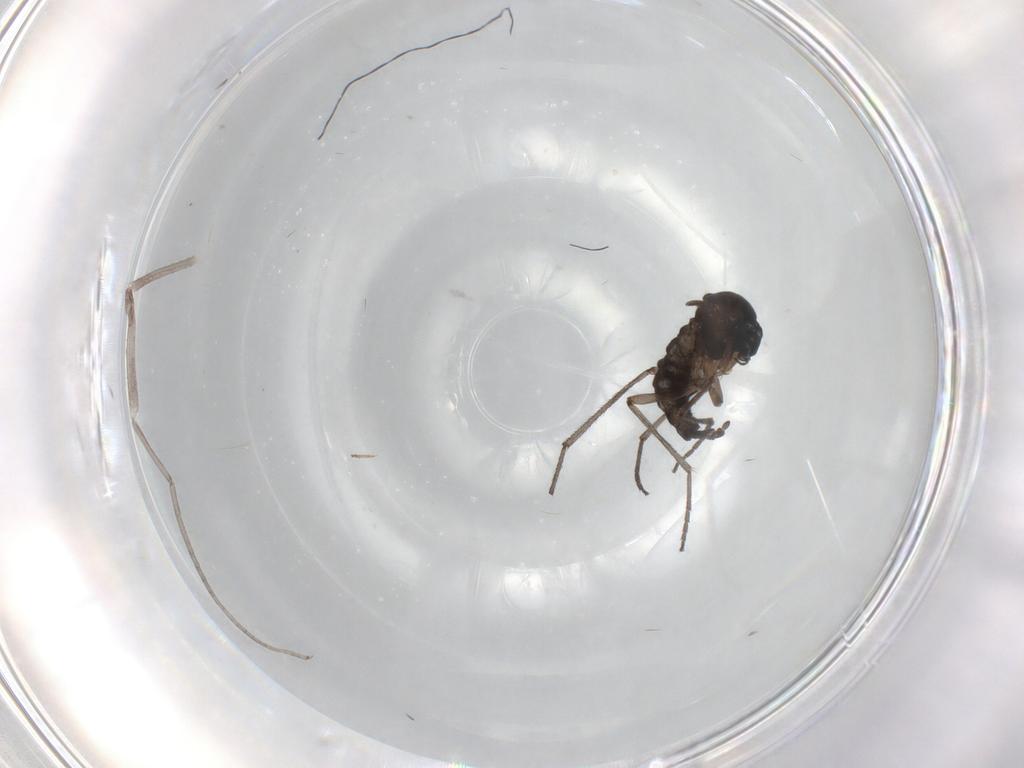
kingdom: Animalia
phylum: Arthropoda
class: Insecta
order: Diptera
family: Sciaridae
